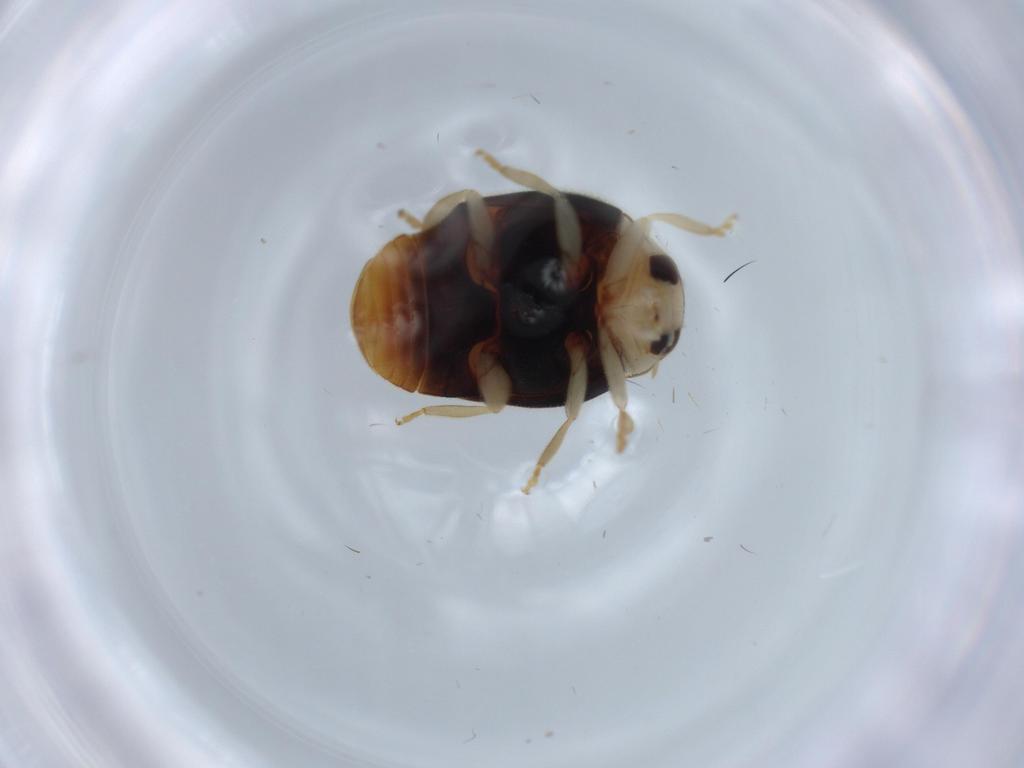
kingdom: Animalia
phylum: Arthropoda
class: Insecta
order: Coleoptera
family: Coccinellidae
